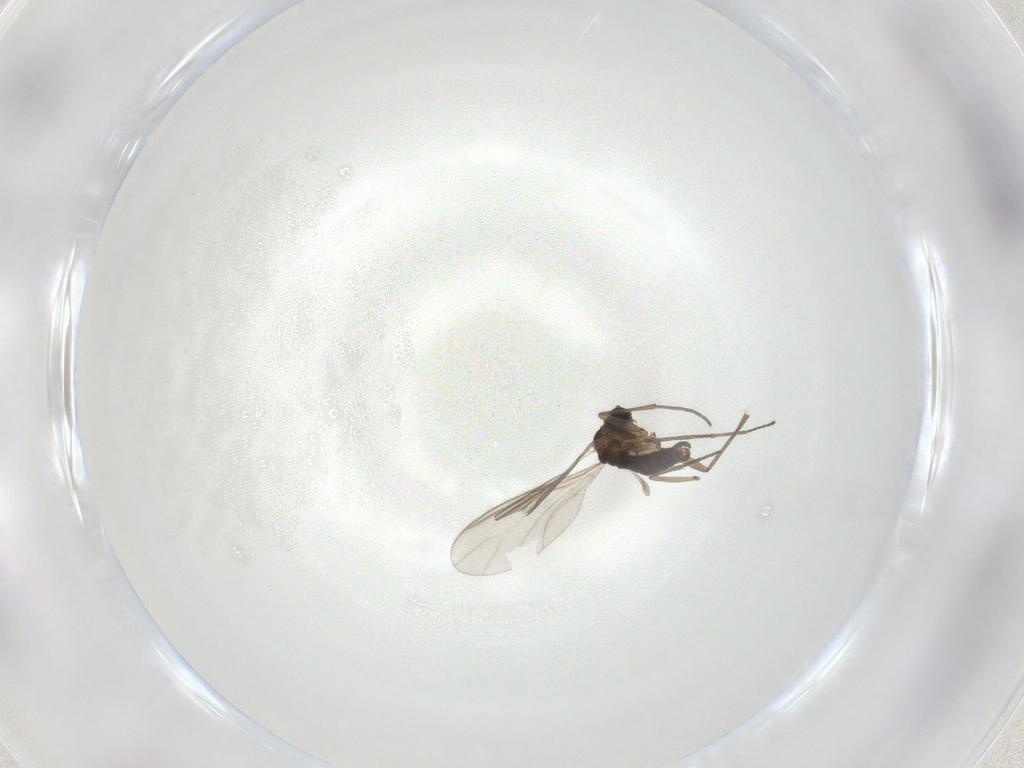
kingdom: Animalia
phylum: Arthropoda
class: Insecta
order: Diptera
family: Sciaridae
